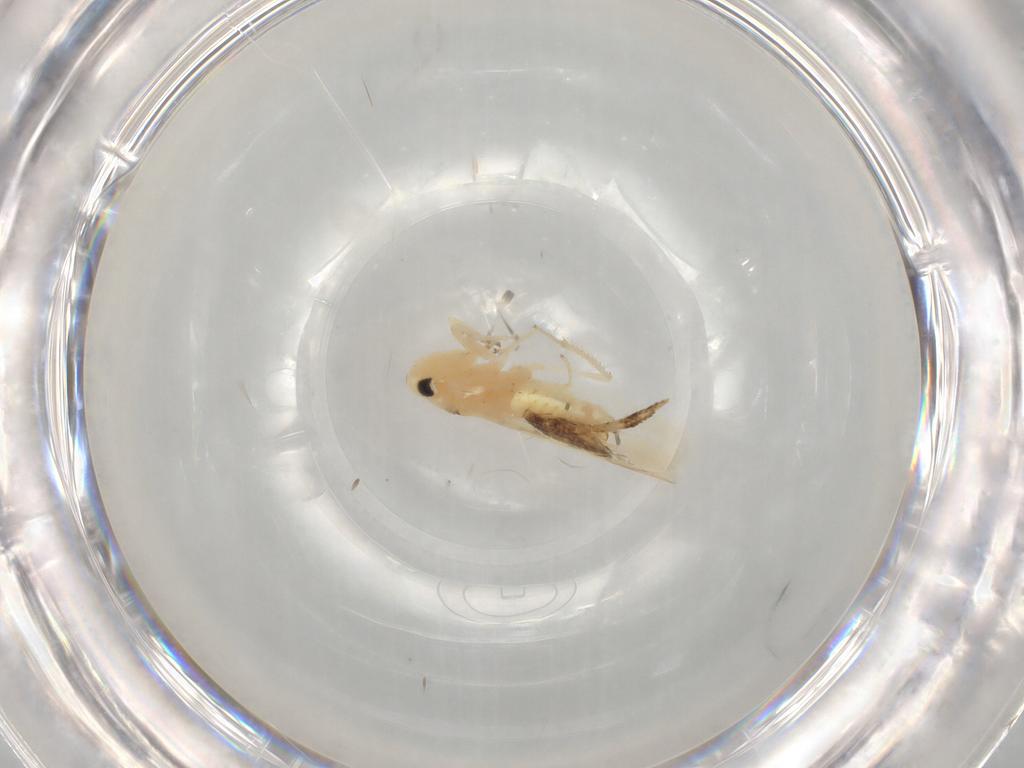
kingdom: Animalia
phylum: Arthropoda
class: Insecta
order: Hemiptera
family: Cicadellidae
